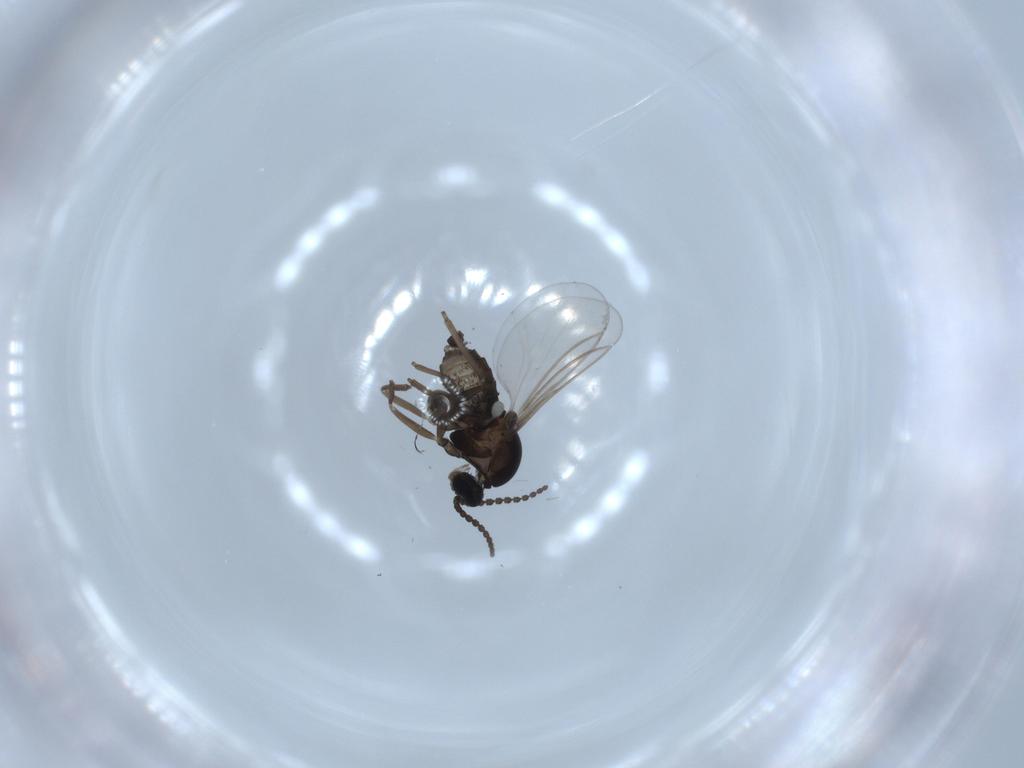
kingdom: Animalia
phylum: Arthropoda
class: Insecta
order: Diptera
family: Cecidomyiidae
